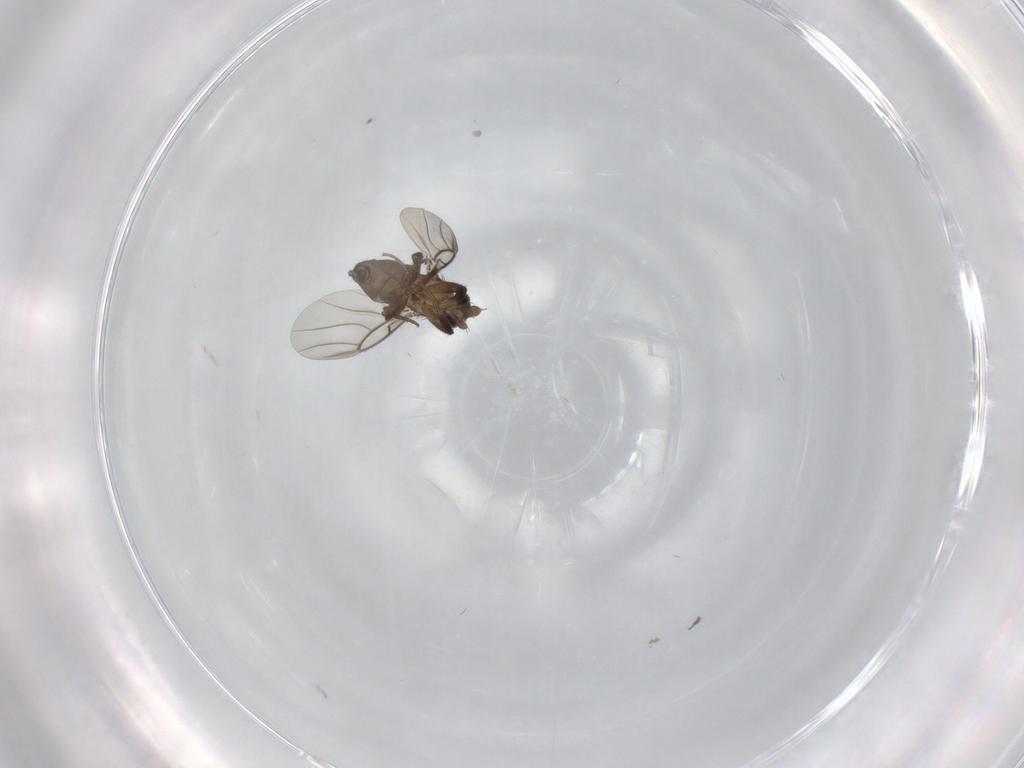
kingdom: Animalia
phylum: Arthropoda
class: Insecta
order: Diptera
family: Phoridae
